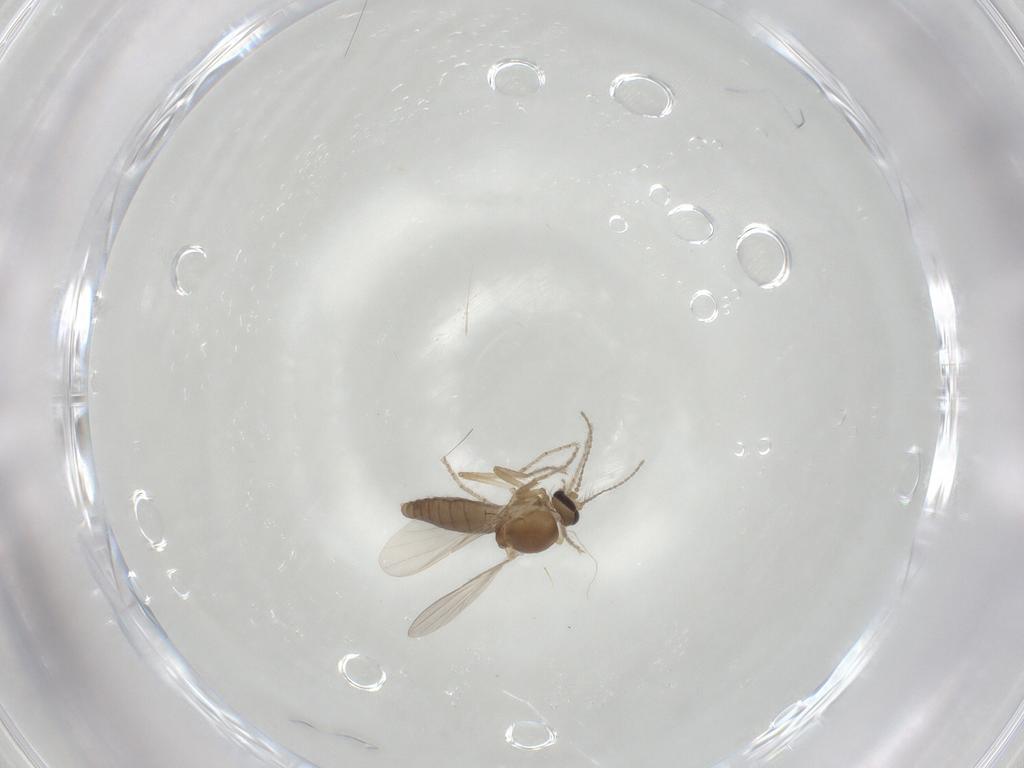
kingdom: Animalia
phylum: Arthropoda
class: Insecta
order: Diptera
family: Ceratopogonidae
